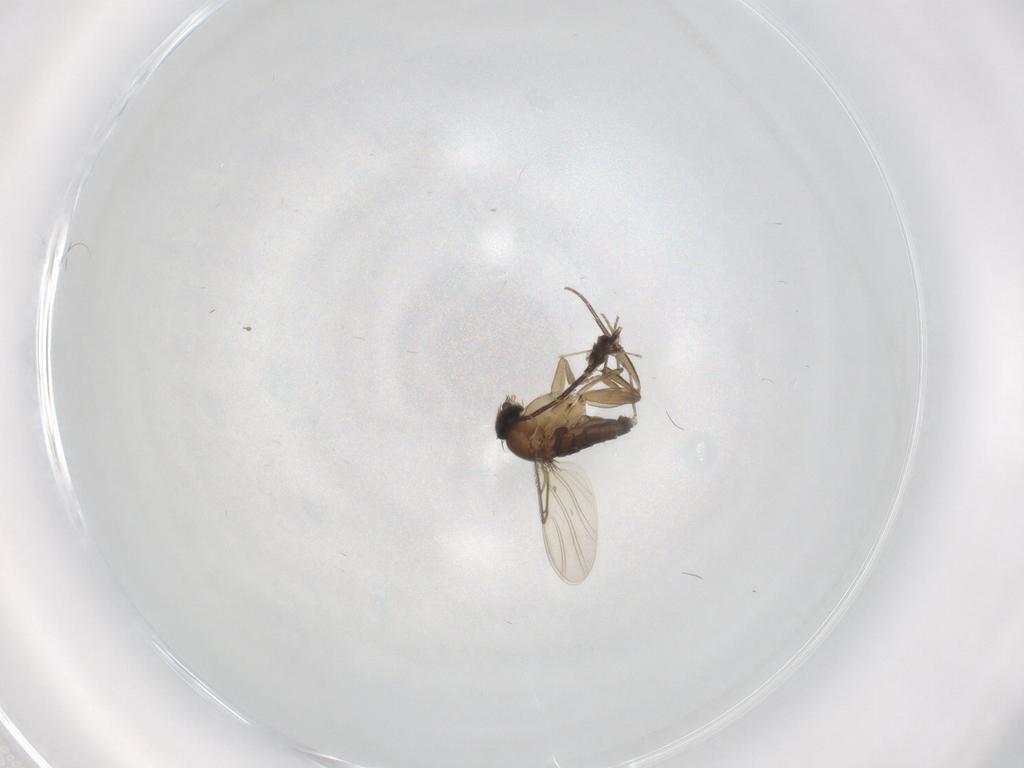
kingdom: Animalia
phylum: Arthropoda
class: Insecta
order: Diptera
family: Phoridae
